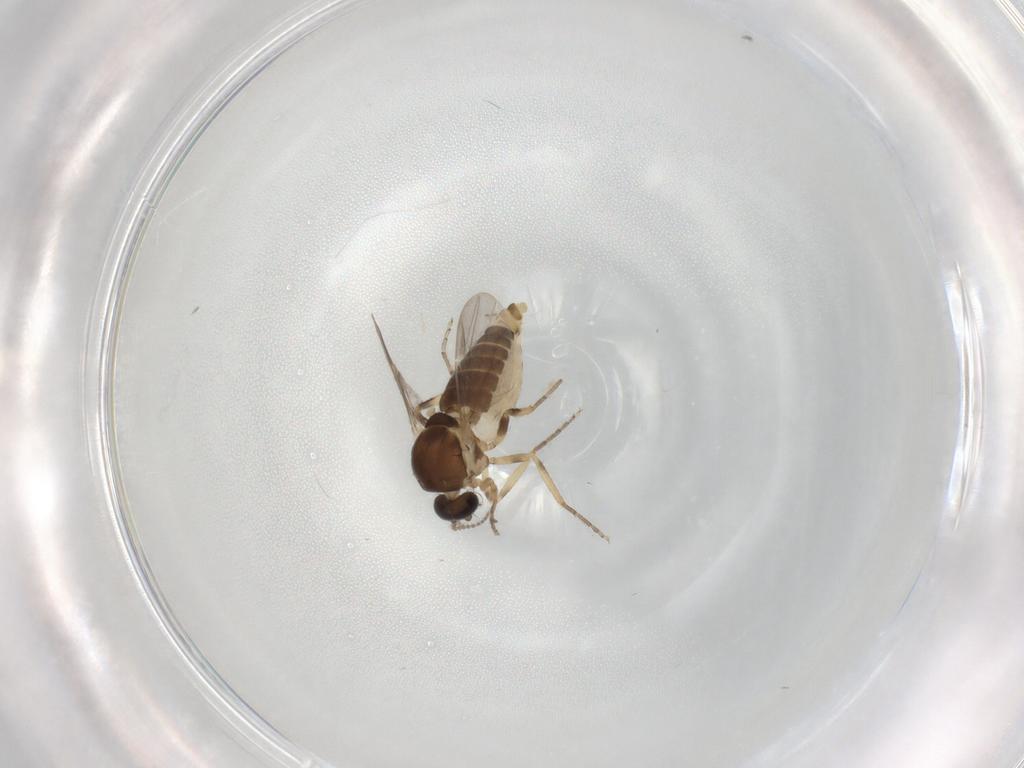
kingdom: Animalia
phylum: Arthropoda
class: Insecta
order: Diptera
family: Ceratopogonidae
